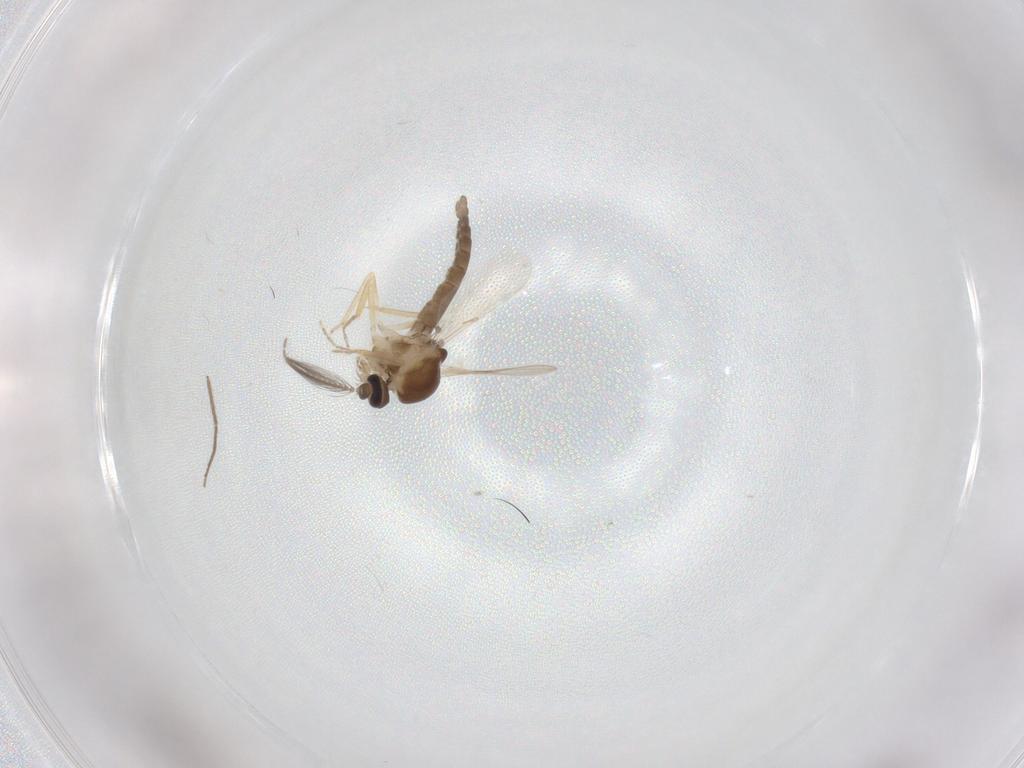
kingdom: Animalia
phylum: Arthropoda
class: Insecta
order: Diptera
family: Ceratopogonidae
